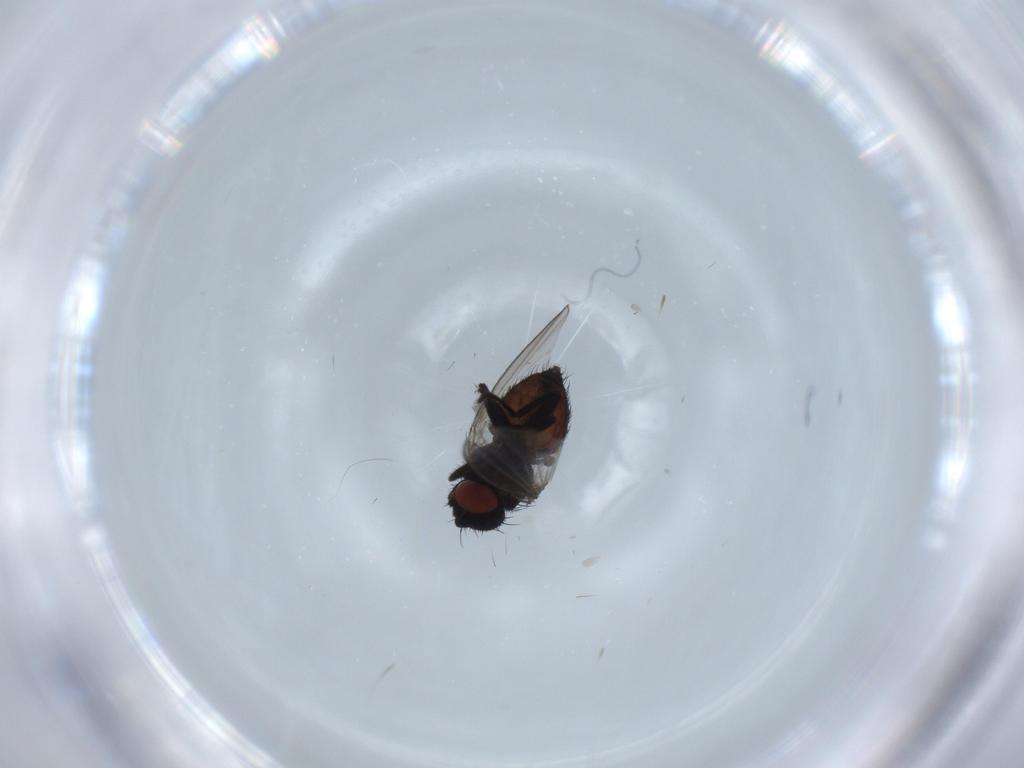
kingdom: Animalia
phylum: Arthropoda
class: Insecta
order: Diptera
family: Milichiidae
